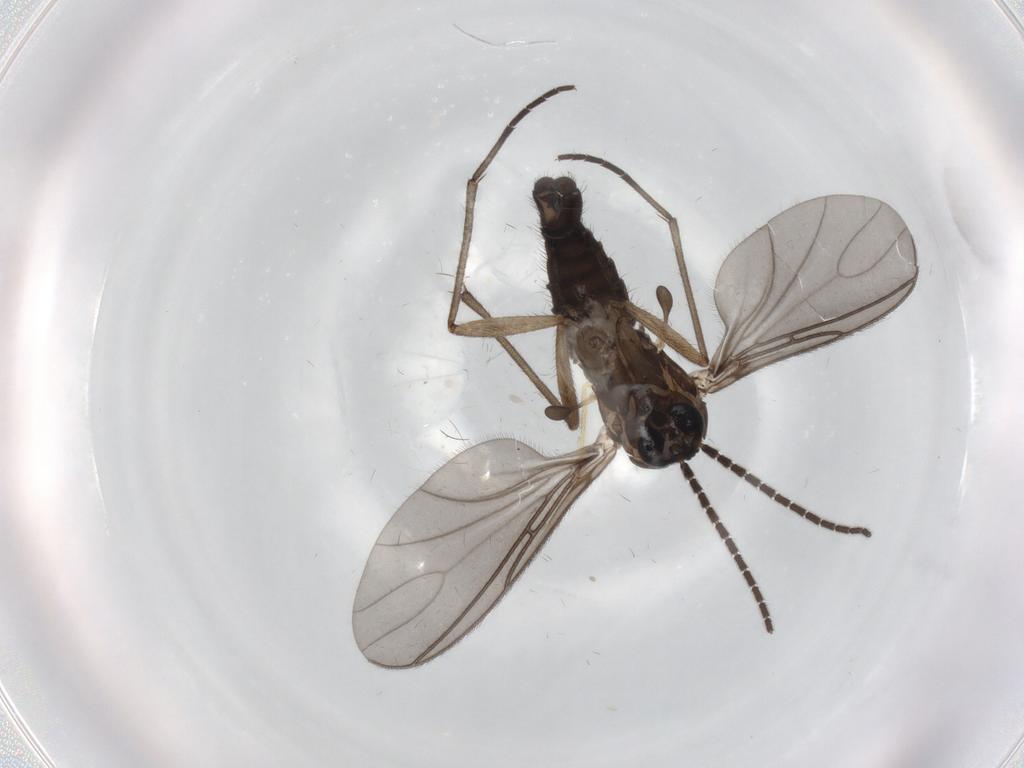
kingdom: Animalia
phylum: Arthropoda
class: Insecta
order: Diptera
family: Sciaridae
